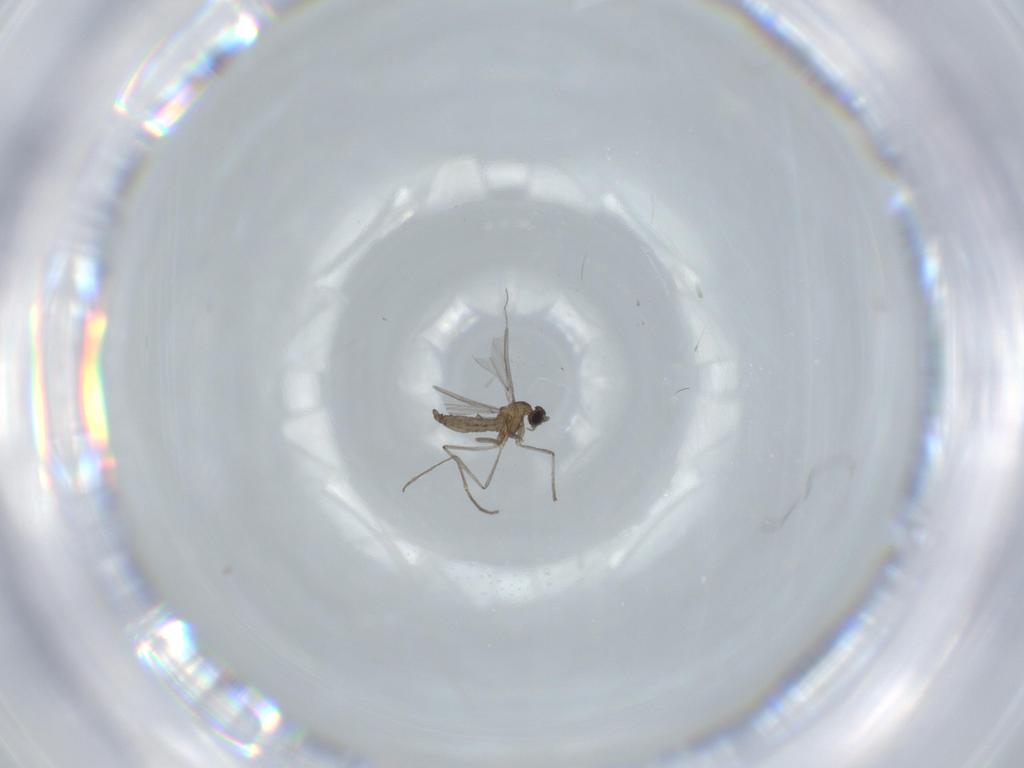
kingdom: Animalia
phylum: Arthropoda
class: Insecta
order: Diptera
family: Cecidomyiidae
